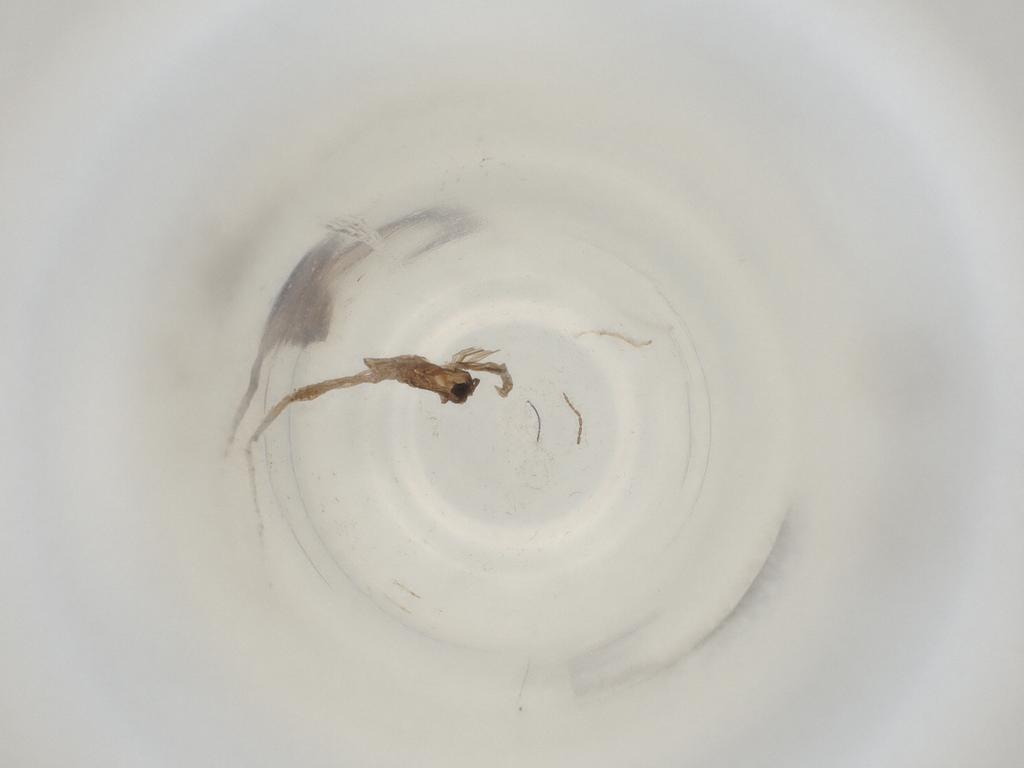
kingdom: Animalia
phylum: Arthropoda
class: Insecta
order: Diptera
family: Cecidomyiidae
